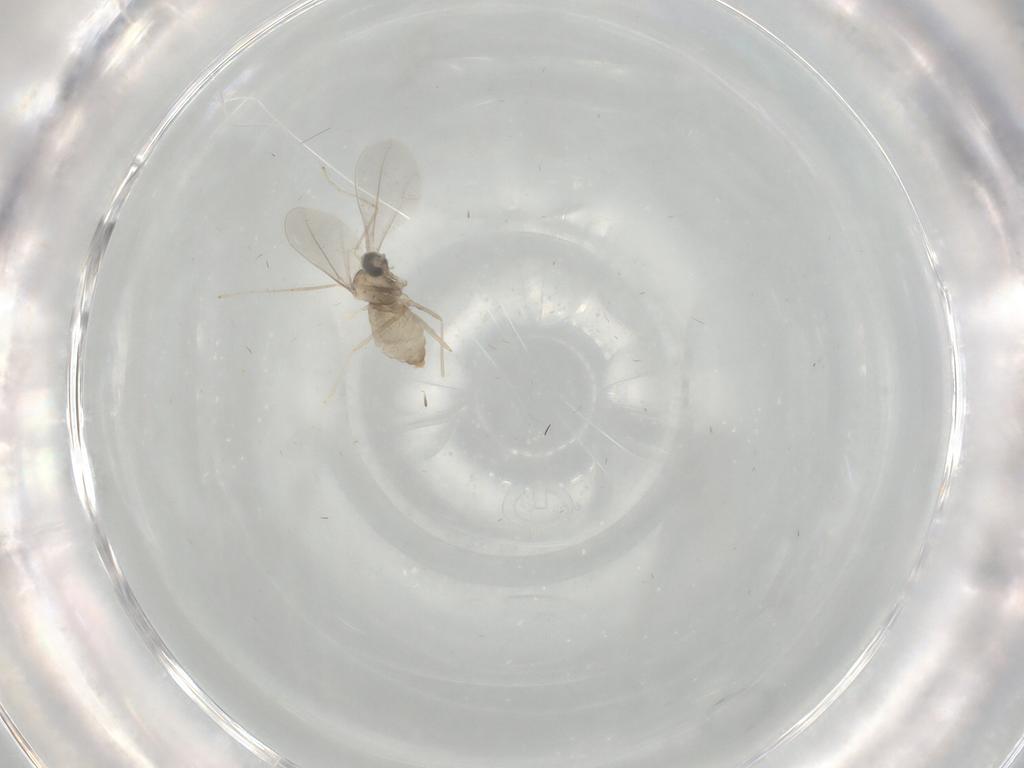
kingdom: Animalia
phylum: Arthropoda
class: Insecta
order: Diptera
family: Cecidomyiidae
